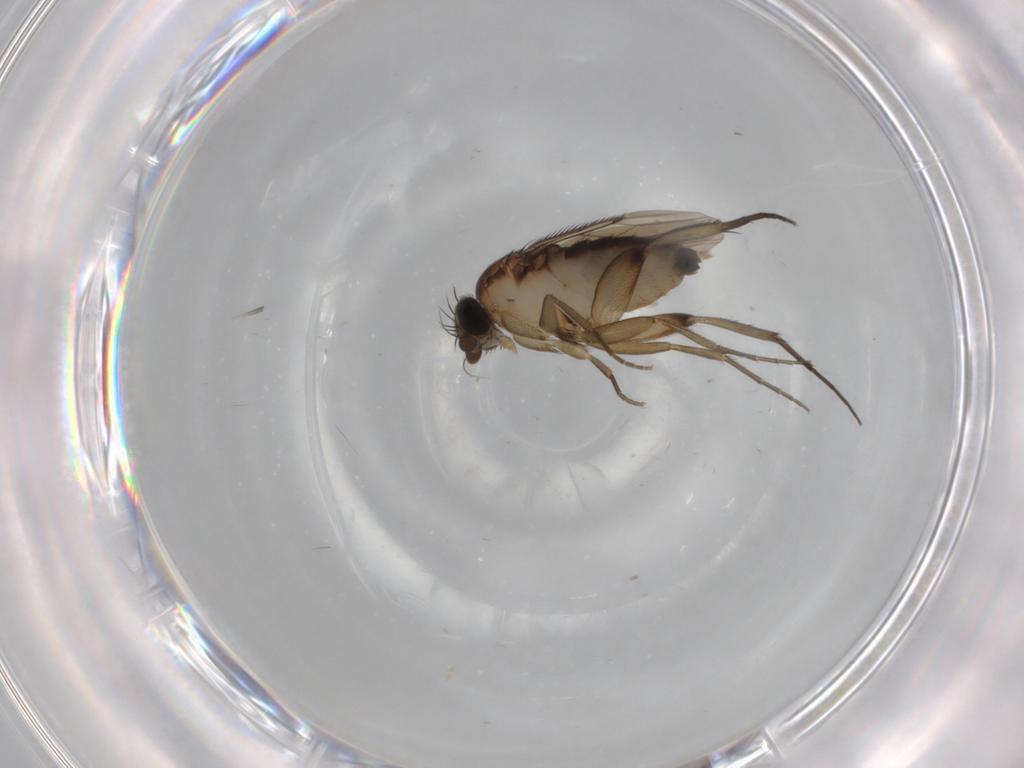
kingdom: Animalia
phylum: Arthropoda
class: Insecta
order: Diptera
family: Phoridae
